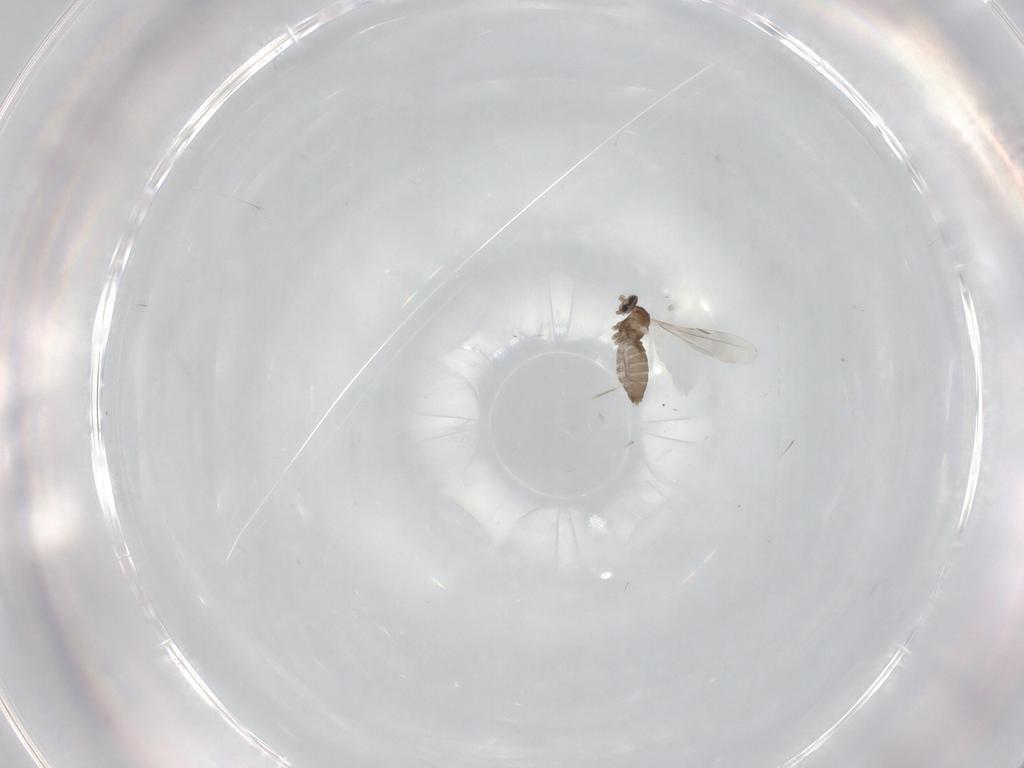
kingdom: Animalia
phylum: Arthropoda
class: Insecta
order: Diptera
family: Cecidomyiidae
